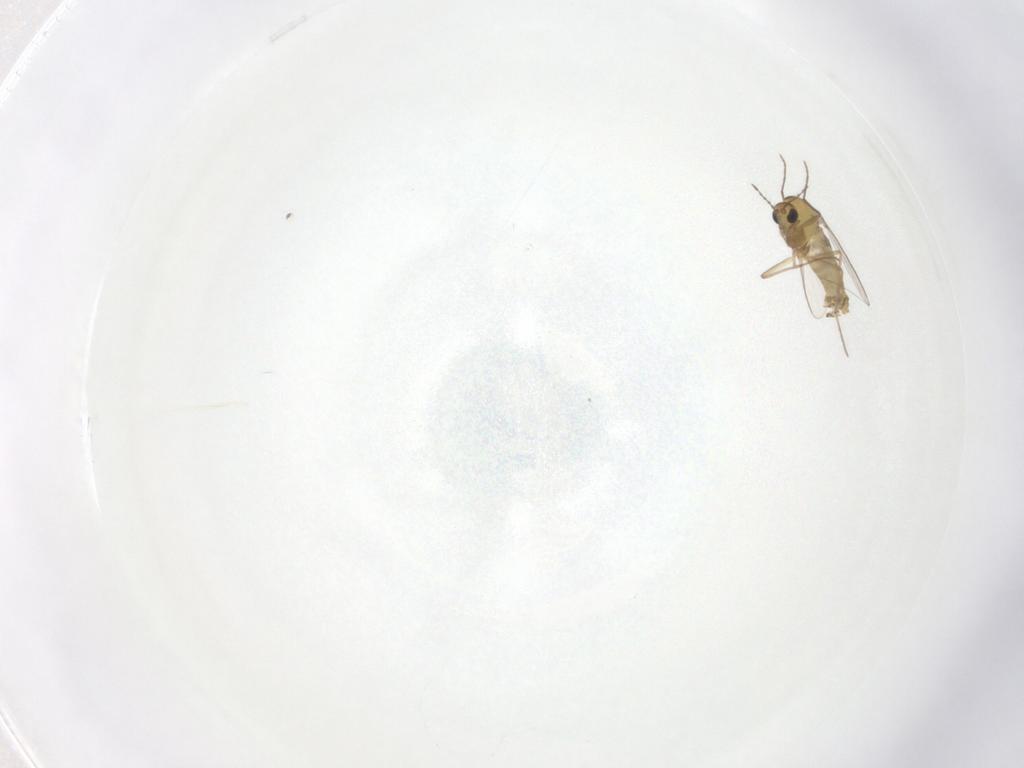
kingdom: Animalia
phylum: Arthropoda
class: Insecta
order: Diptera
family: Chironomidae
